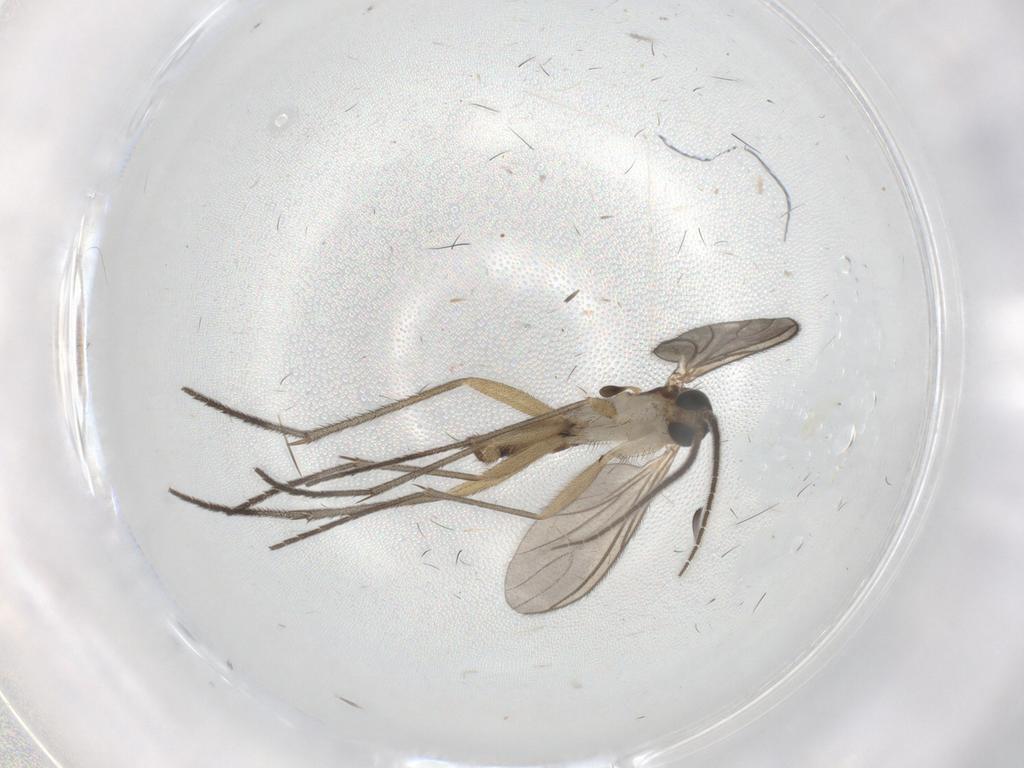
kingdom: Animalia
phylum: Arthropoda
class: Insecta
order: Diptera
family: Sciaridae
